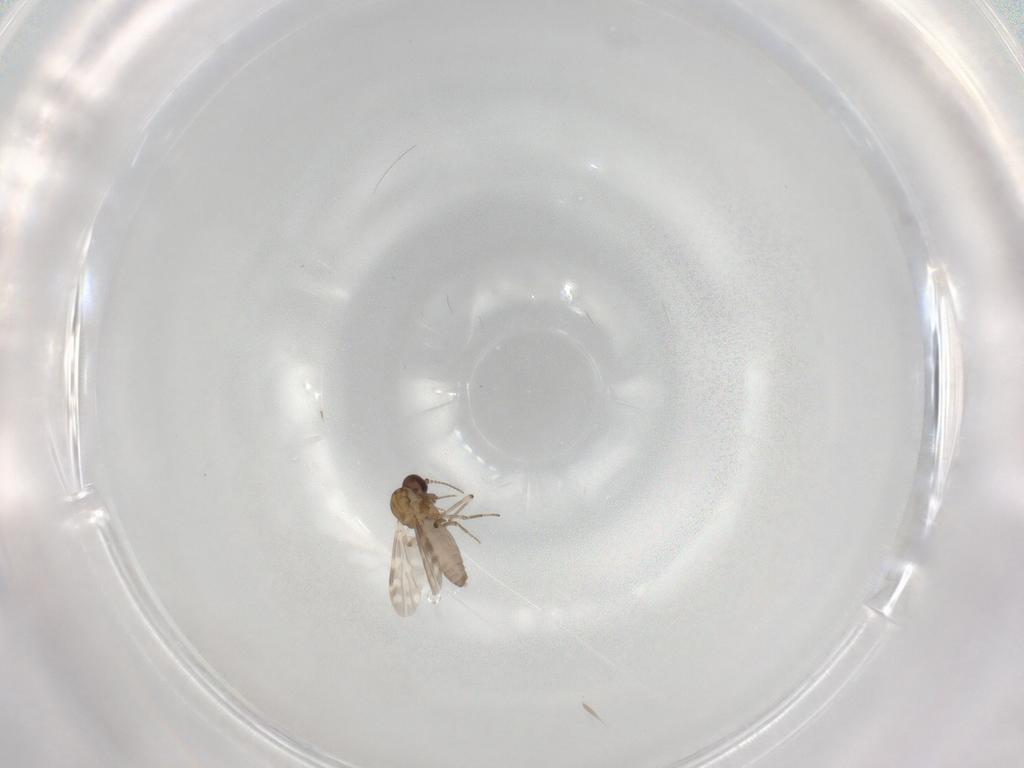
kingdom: Animalia
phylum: Arthropoda
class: Insecta
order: Diptera
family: Ceratopogonidae
